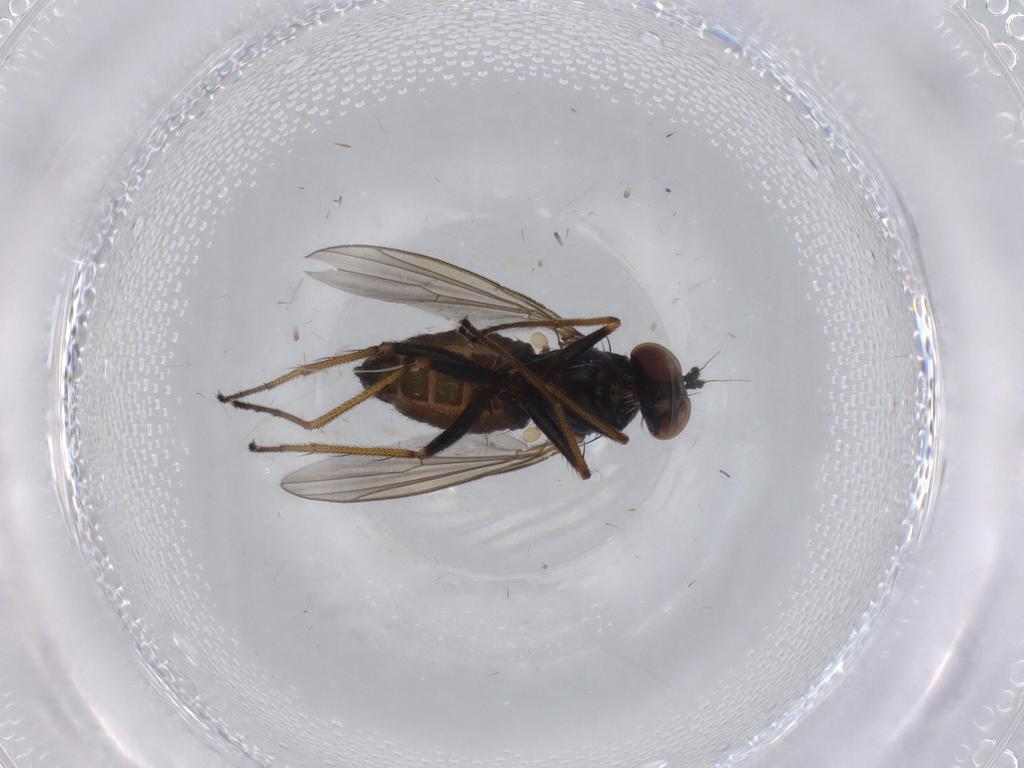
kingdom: Animalia
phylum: Arthropoda
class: Insecta
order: Diptera
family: Dolichopodidae
